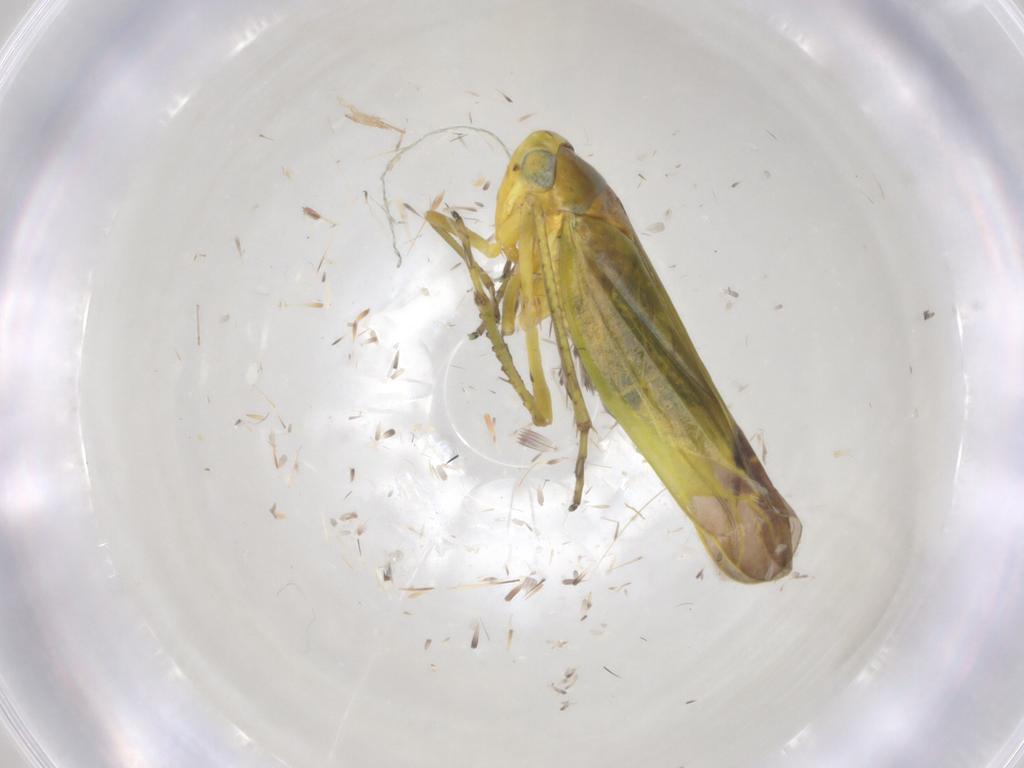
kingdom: Animalia
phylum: Arthropoda
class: Insecta
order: Hemiptera
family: Cicadellidae
